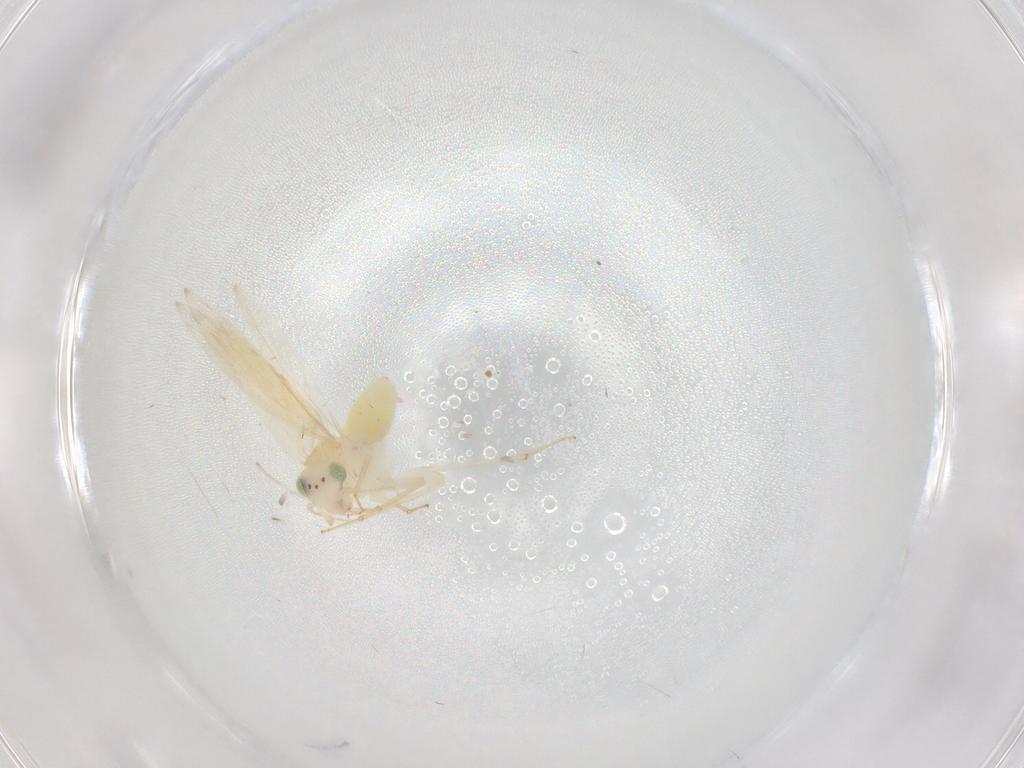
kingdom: Animalia
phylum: Arthropoda
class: Insecta
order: Psocodea
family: Lepidopsocidae
